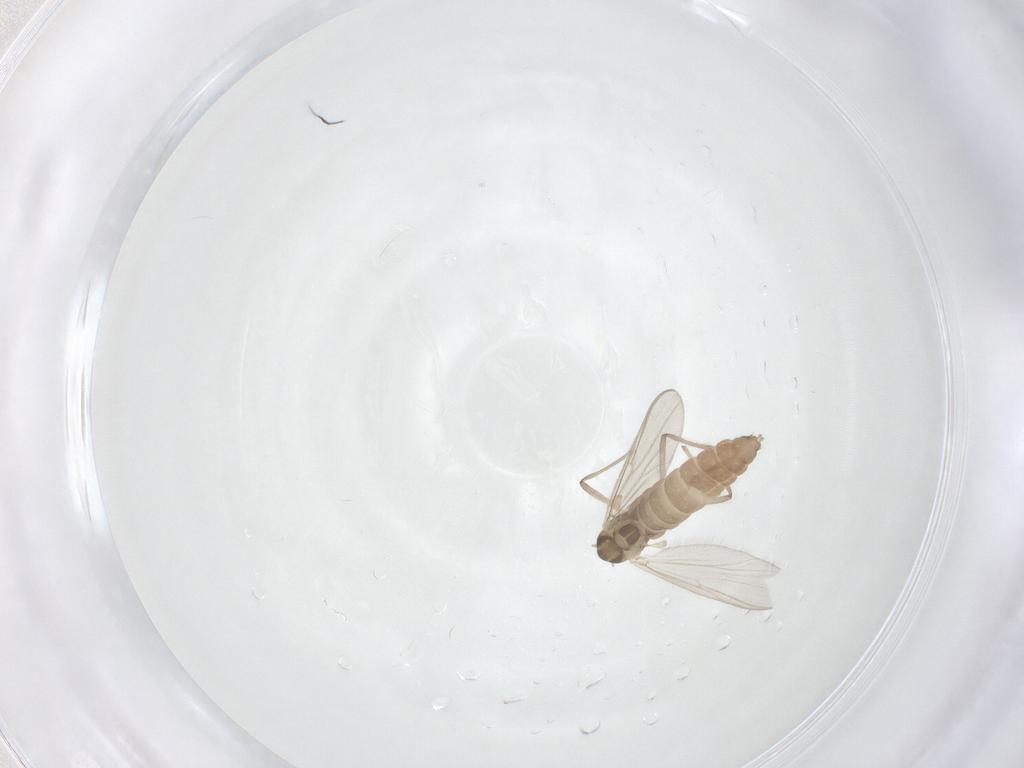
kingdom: Animalia
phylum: Arthropoda
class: Insecta
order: Diptera
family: Chironomidae
